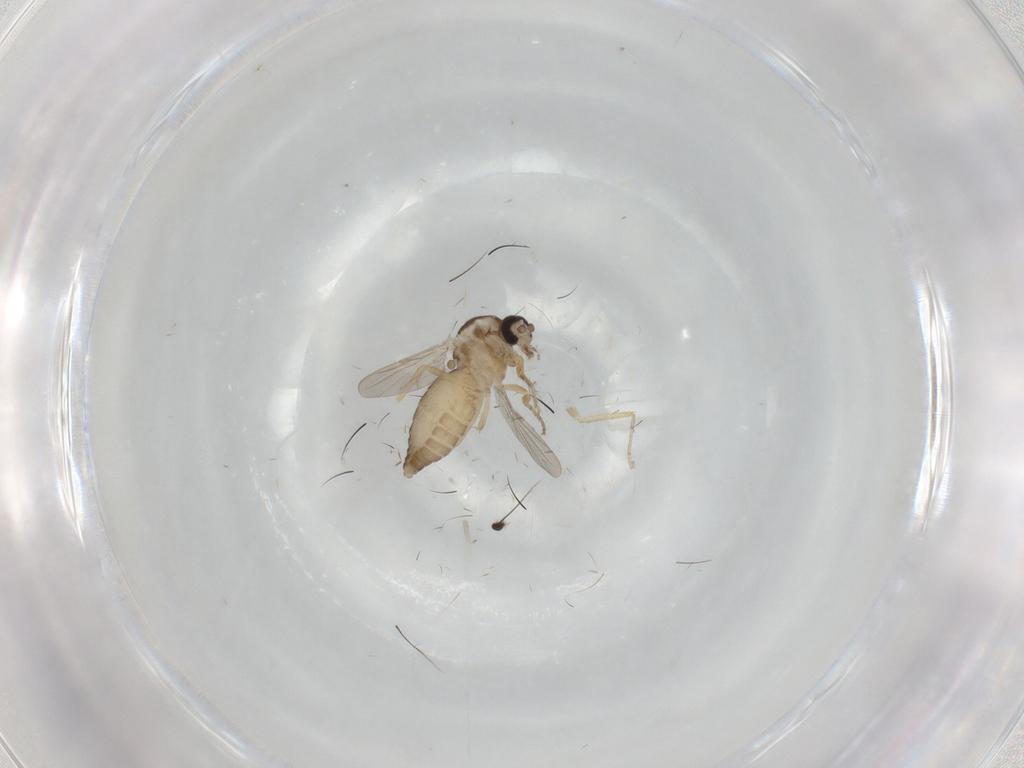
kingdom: Animalia
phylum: Arthropoda
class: Insecta
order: Diptera
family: Ceratopogonidae
